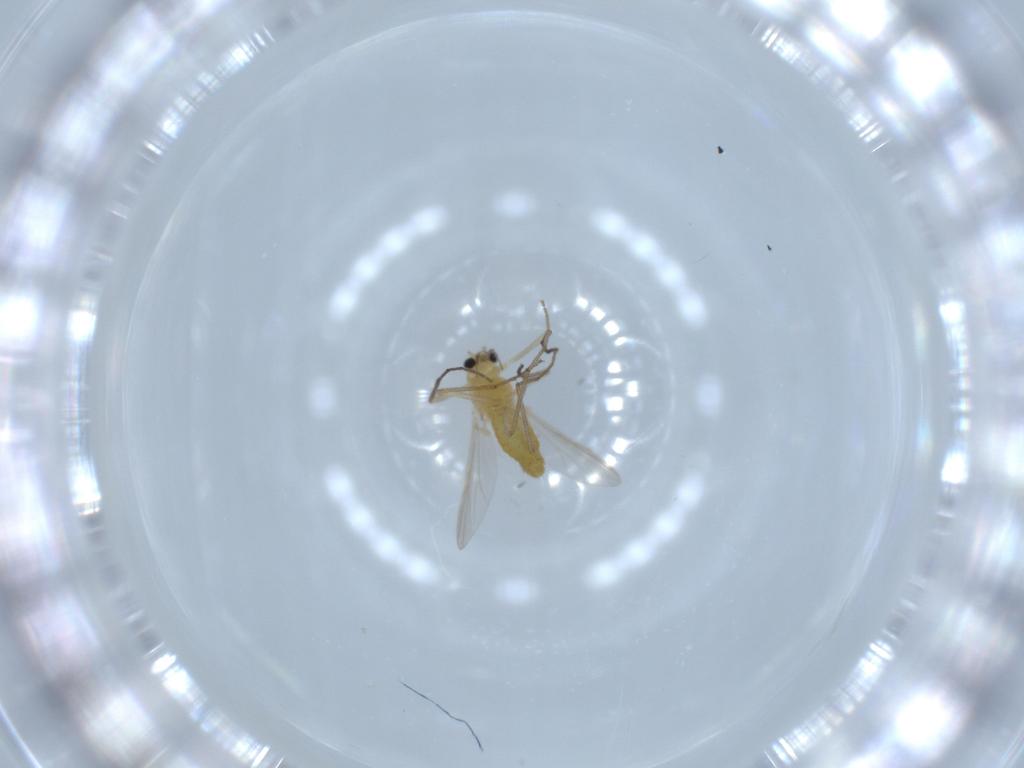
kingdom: Animalia
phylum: Arthropoda
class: Insecta
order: Diptera
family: Chironomidae
